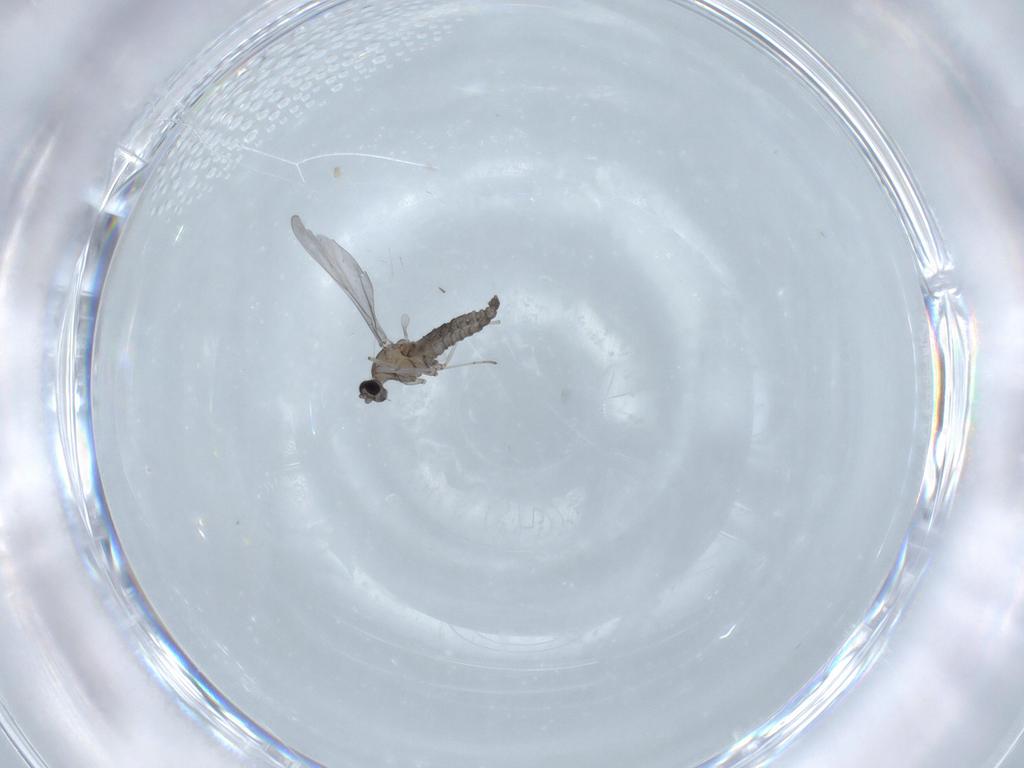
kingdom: Animalia
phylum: Arthropoda
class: Insecta
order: Diptera
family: Cecidomyiidae
